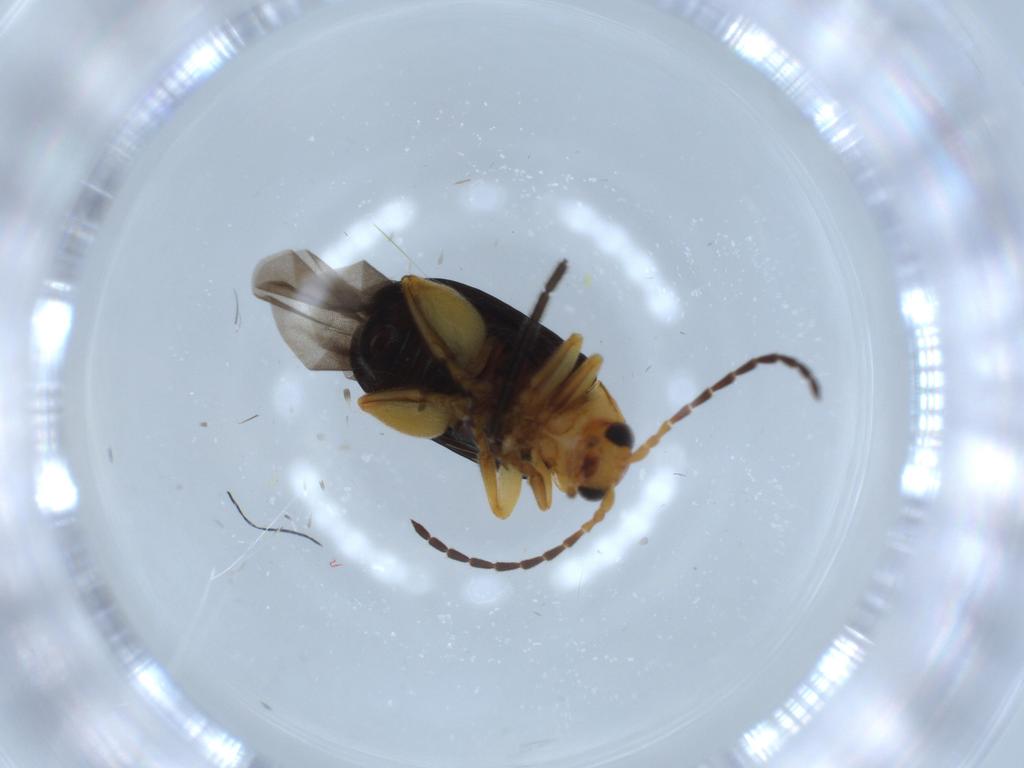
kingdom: Animalia
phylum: Arthropoda
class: Insecta
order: Coleoptera
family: Chrysomelidae
